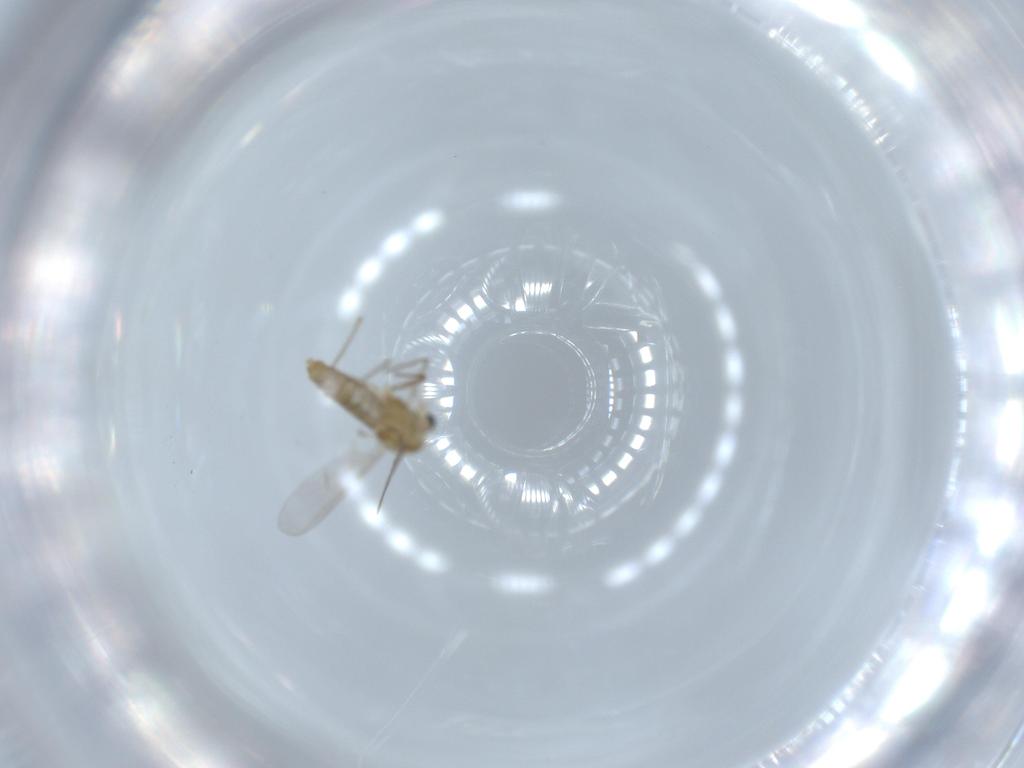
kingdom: Animalia
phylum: Arthropoda
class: Insecta
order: Diptera
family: Chironomidae
